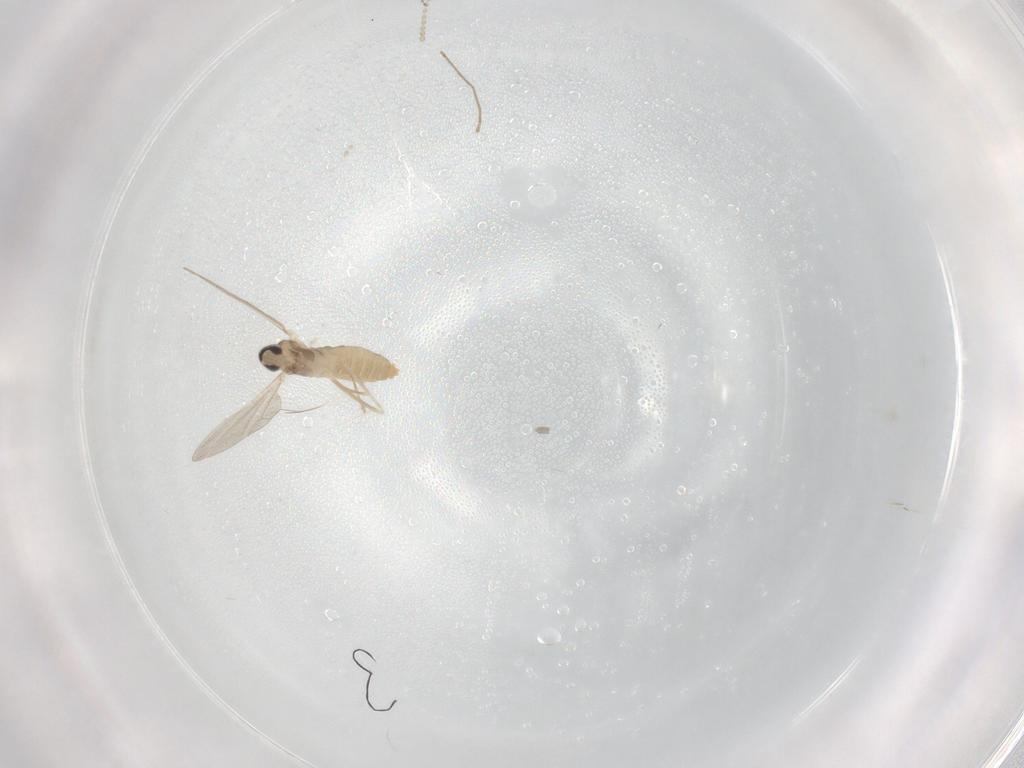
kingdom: Animalia
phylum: Arthropoda
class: Insecta
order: Diptera
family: Cecidomyiidae
